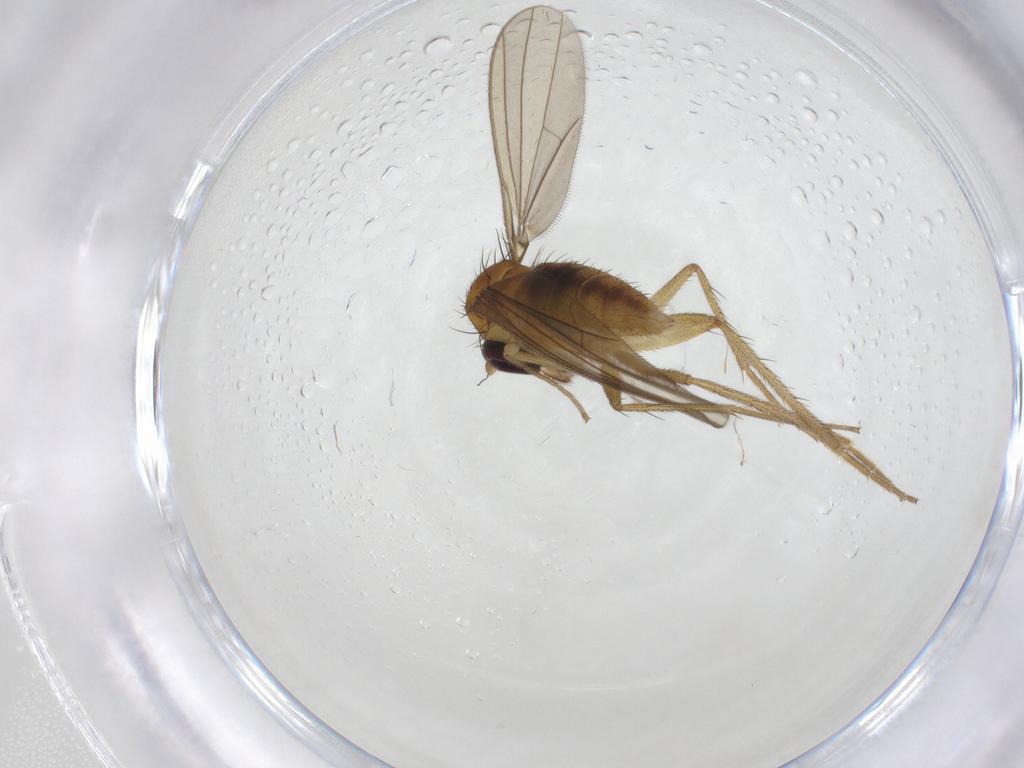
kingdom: Animalia
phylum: Arthropoda
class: Insecta
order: Diptera
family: Dolichopodidae
